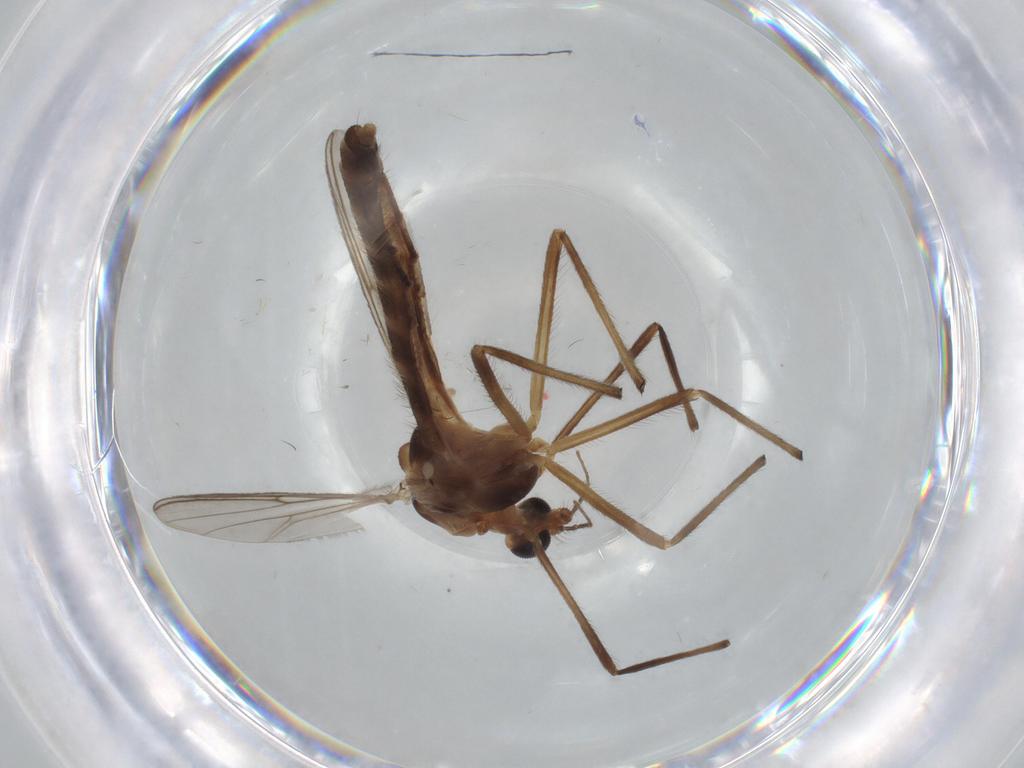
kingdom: Animalia
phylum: Arthropoda
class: Insecta
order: Diptera
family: Chironomidae
